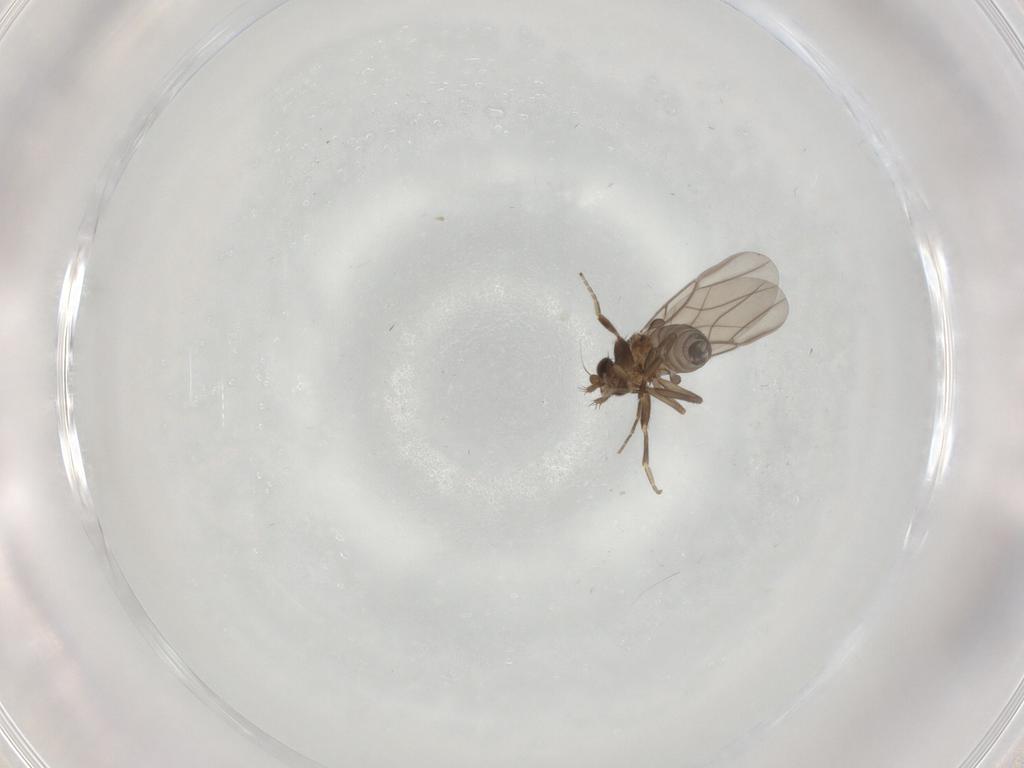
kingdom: Animalia
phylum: Arthropoda
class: Insecta
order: Diptera
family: Phoridae
